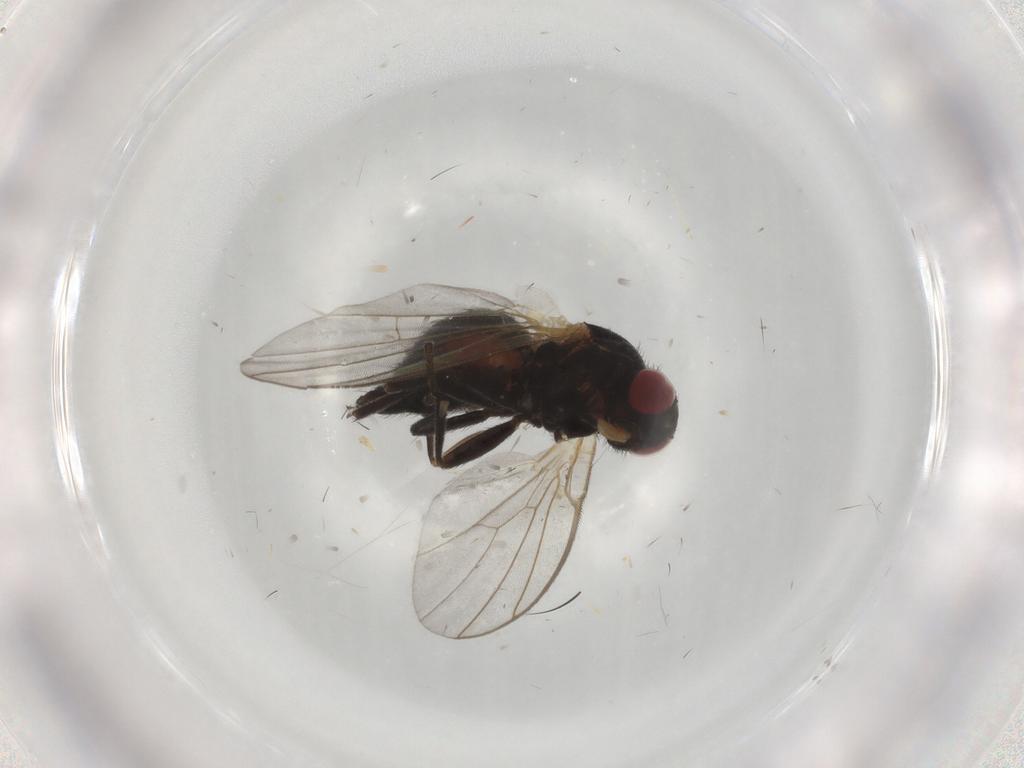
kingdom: Animalia
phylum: Arthropoda
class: Insecta
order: Diptera
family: Agromyzidae
